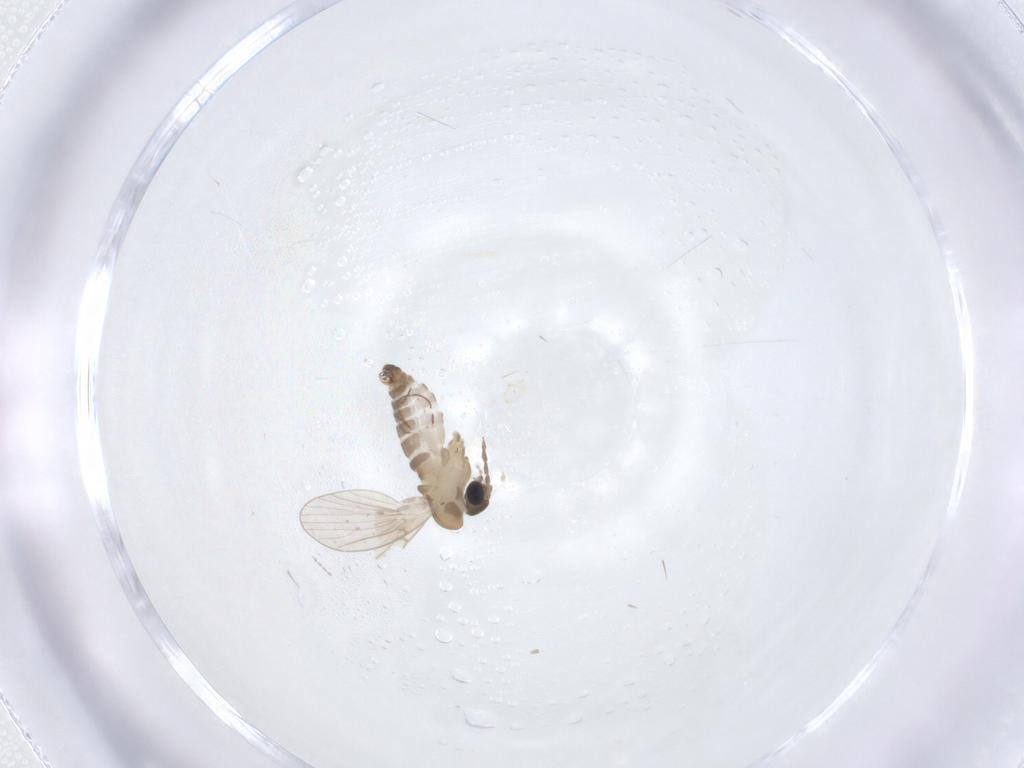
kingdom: Animalia
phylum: Arthropoda
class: Insecta
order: Diptera
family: Psychodidae
